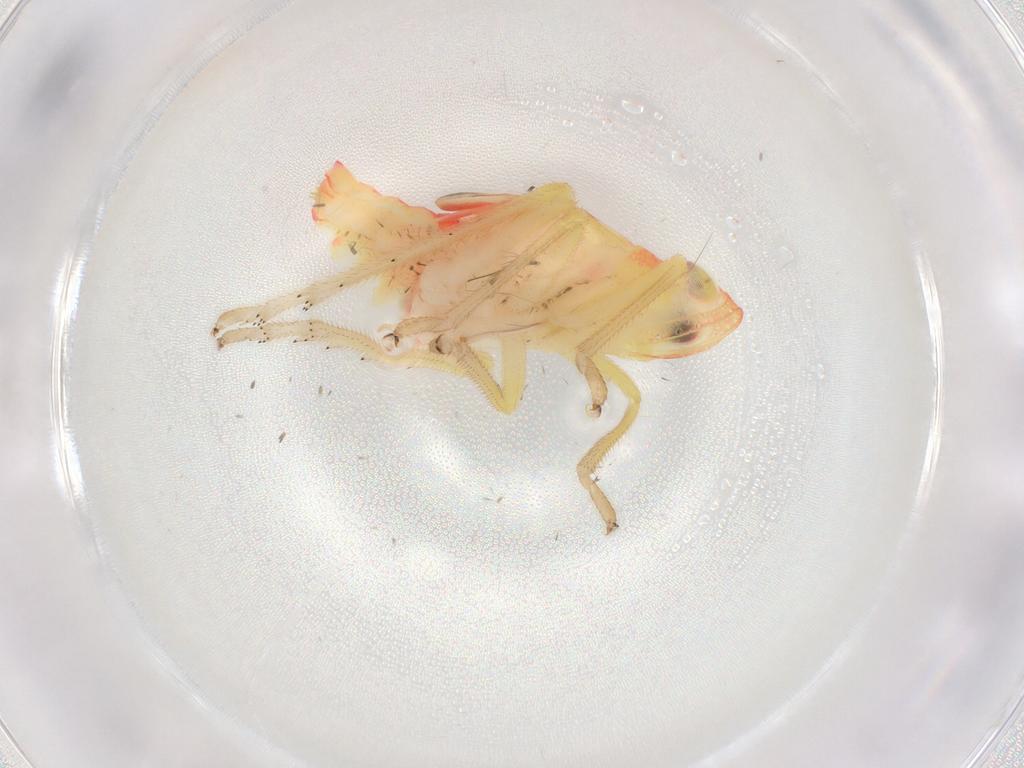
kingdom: Animalia
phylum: Arthropoda
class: Insecta
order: Hemiptera
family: Tropiduchidae
